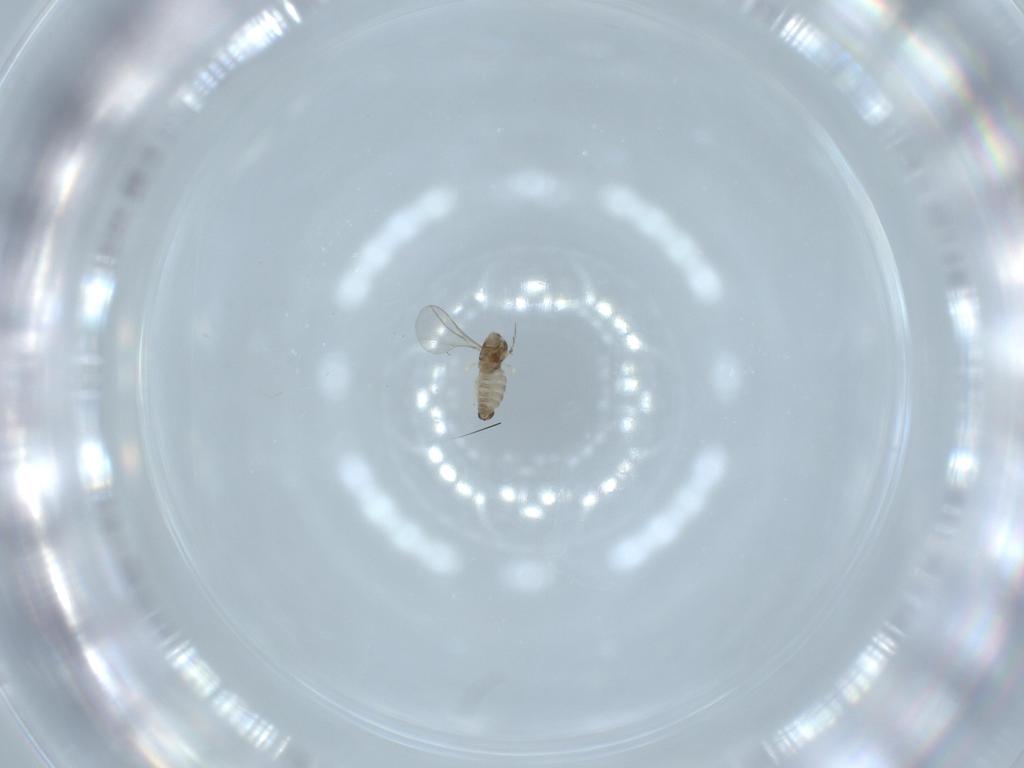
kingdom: Animalia
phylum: Arthropoda
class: Insecta
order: Diptera
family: Cecidomyiidae
